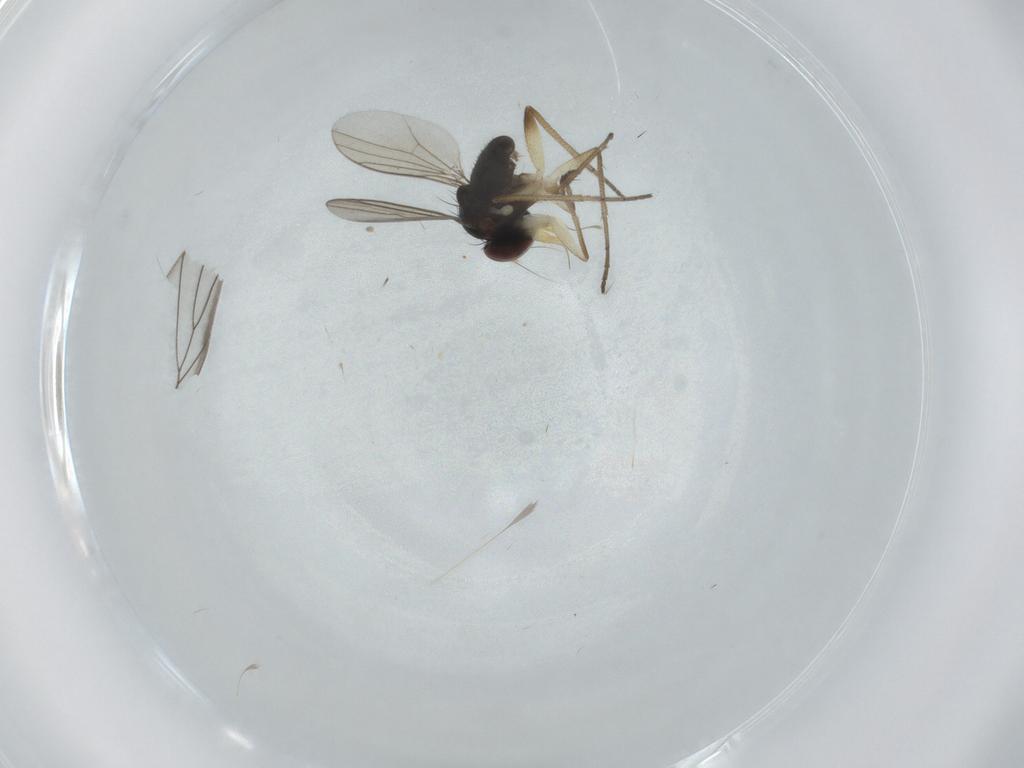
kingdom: Animalia
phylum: Arthropoda
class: Insecta
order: Diptera
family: Dolichopodidae
